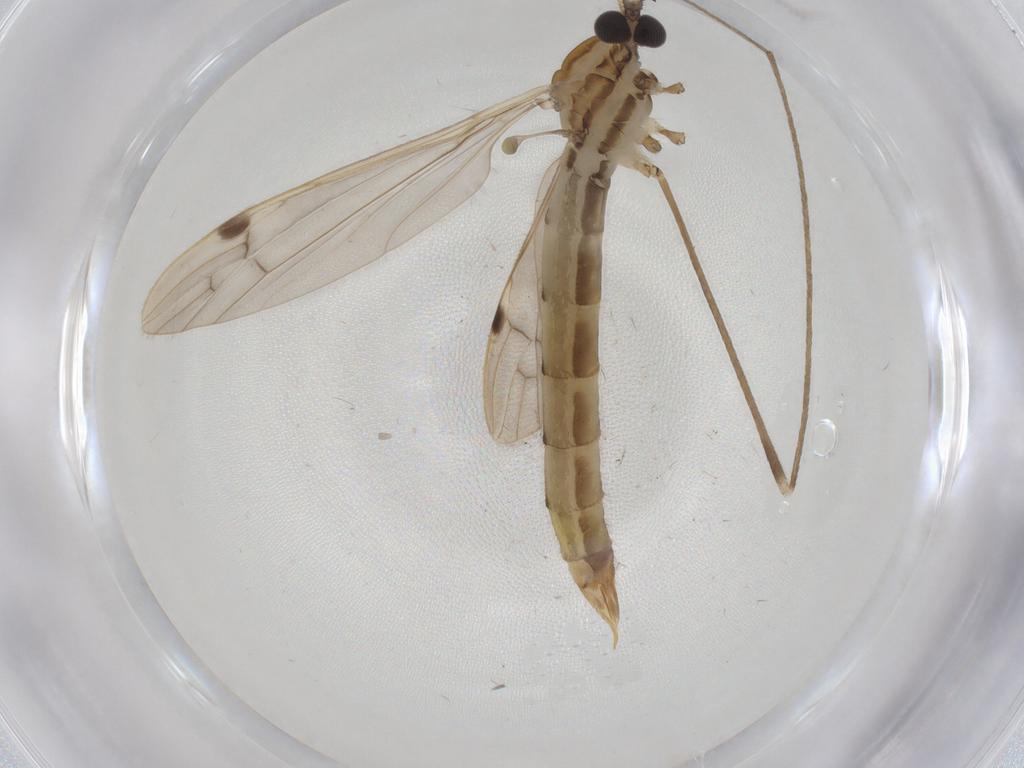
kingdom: Animalia
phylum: Arthropoda
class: Insecta
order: Diptera
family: Limoniidae
